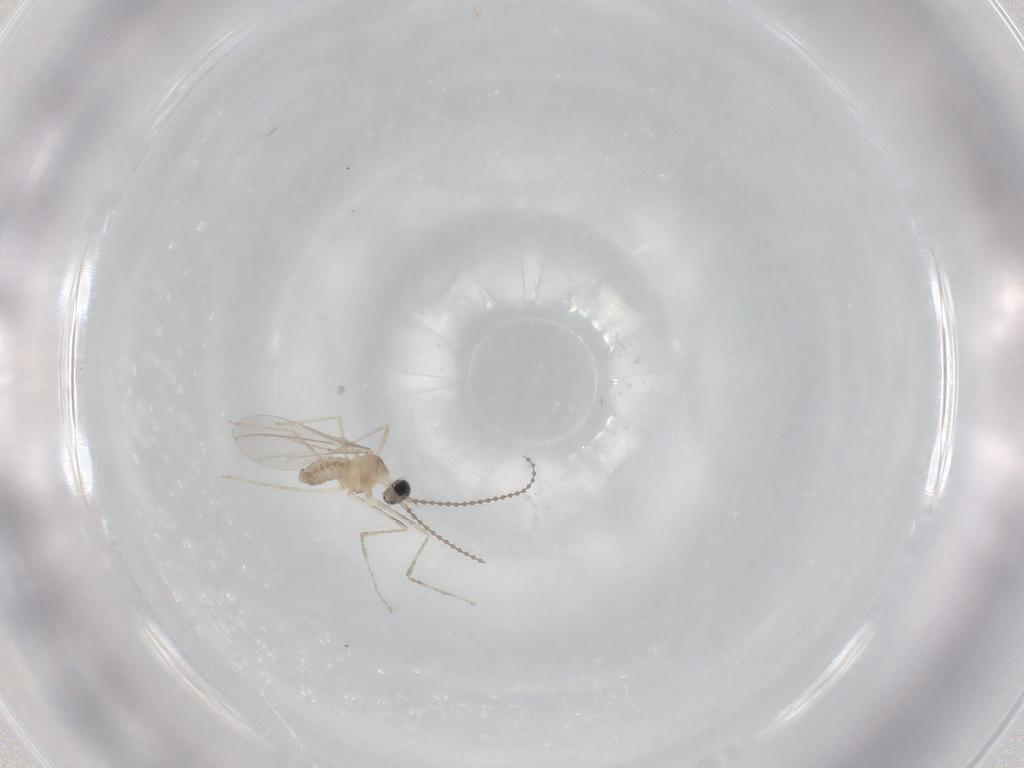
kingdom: Animalia
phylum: Arthropoda
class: Insecta
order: Diptera
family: Cecidomyiidae
